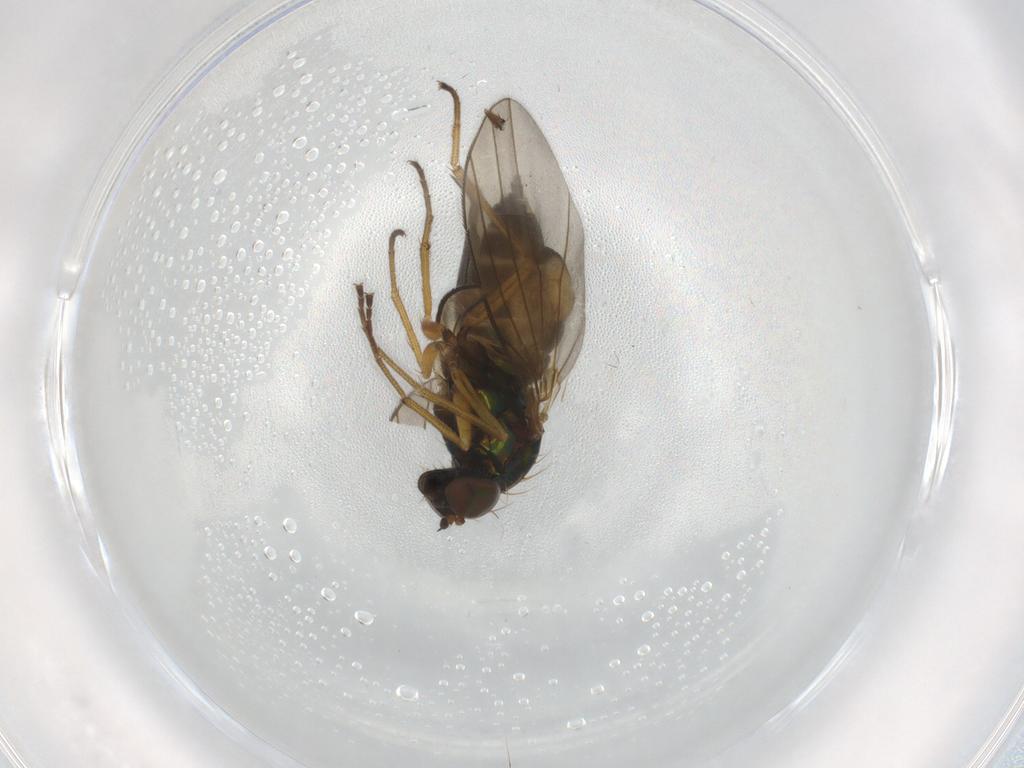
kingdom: Animalia
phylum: Arthropoda
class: Insecta
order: Diptera
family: Dolichopodidae
